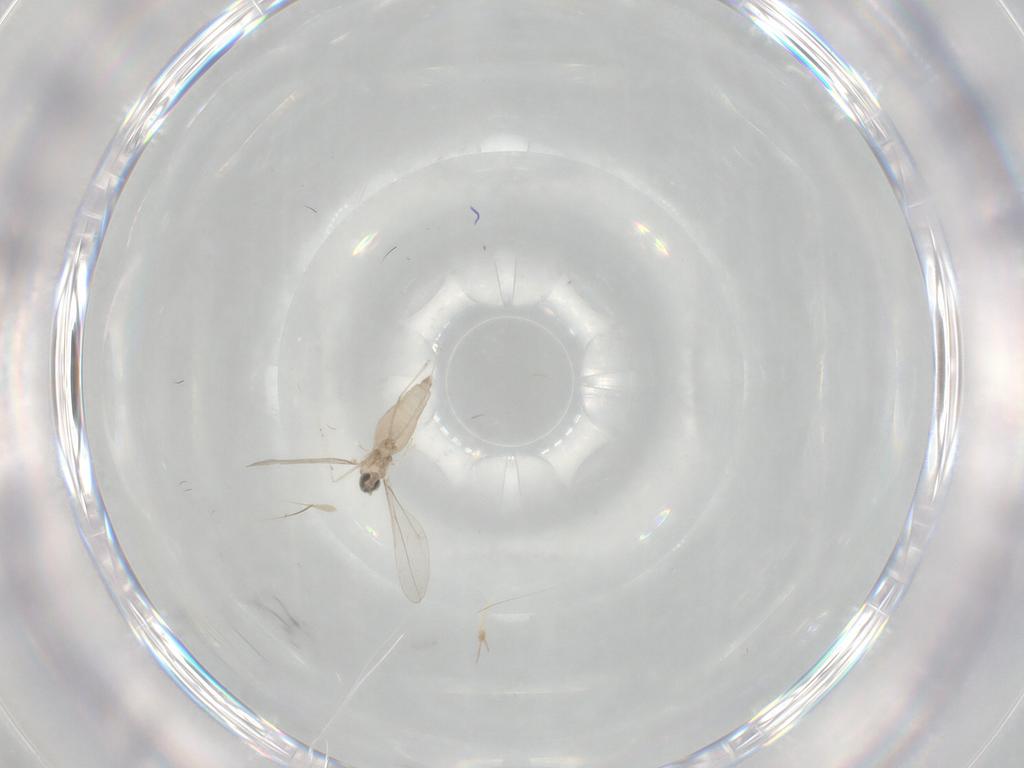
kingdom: Animalia
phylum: Arthropoda
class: Insecta
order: Diptera
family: Cecidomyiidae
